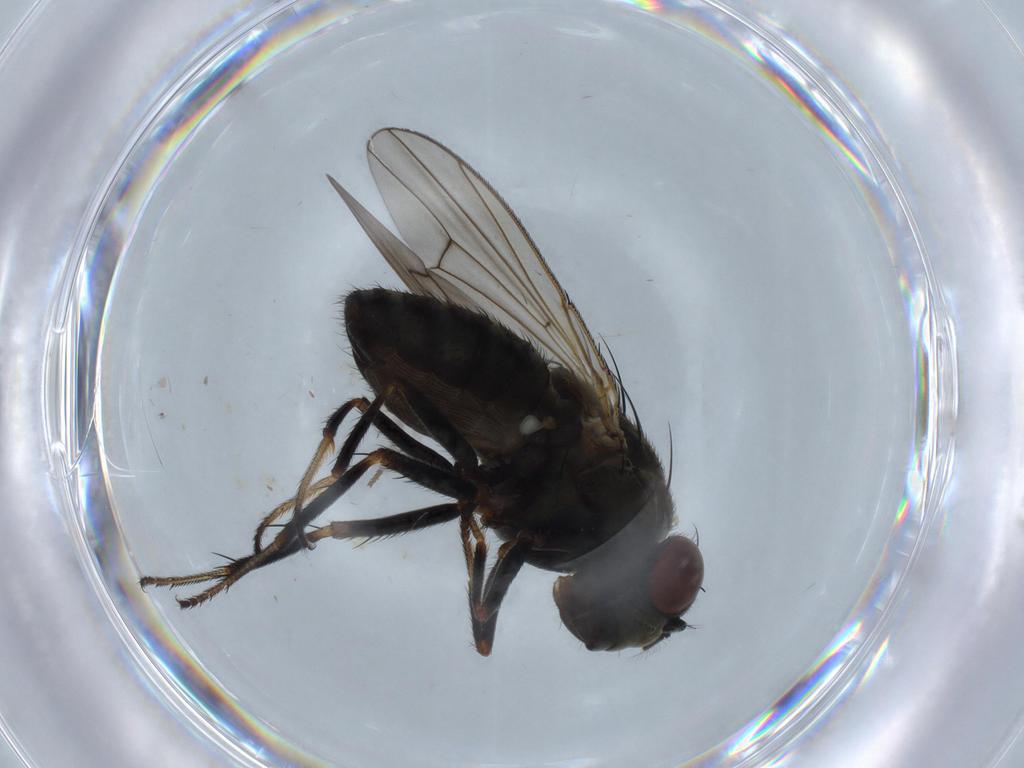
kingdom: Animalia
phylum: Arthropoda
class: Insecta
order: Diptera
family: Psychodidae
